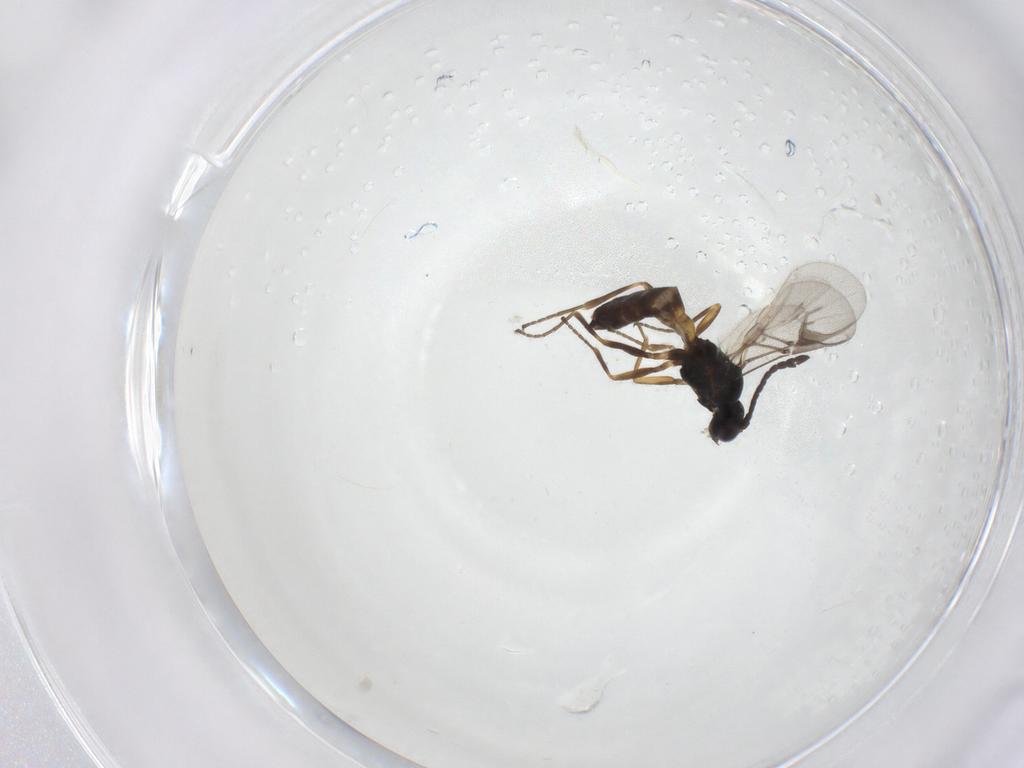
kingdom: Animalia
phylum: Arthropoda
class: Insecta
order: Hymenoptera
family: Braconidae
